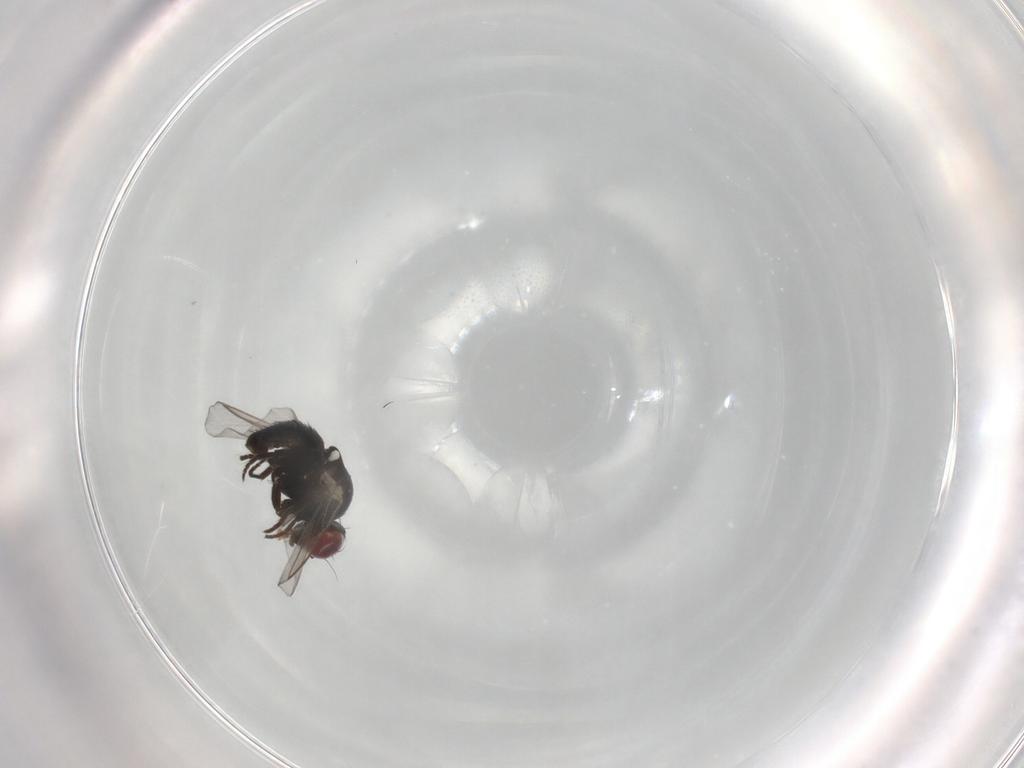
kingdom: Animalia
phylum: Arthropoda
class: Insecta
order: Diptera
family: Agromyzidae
